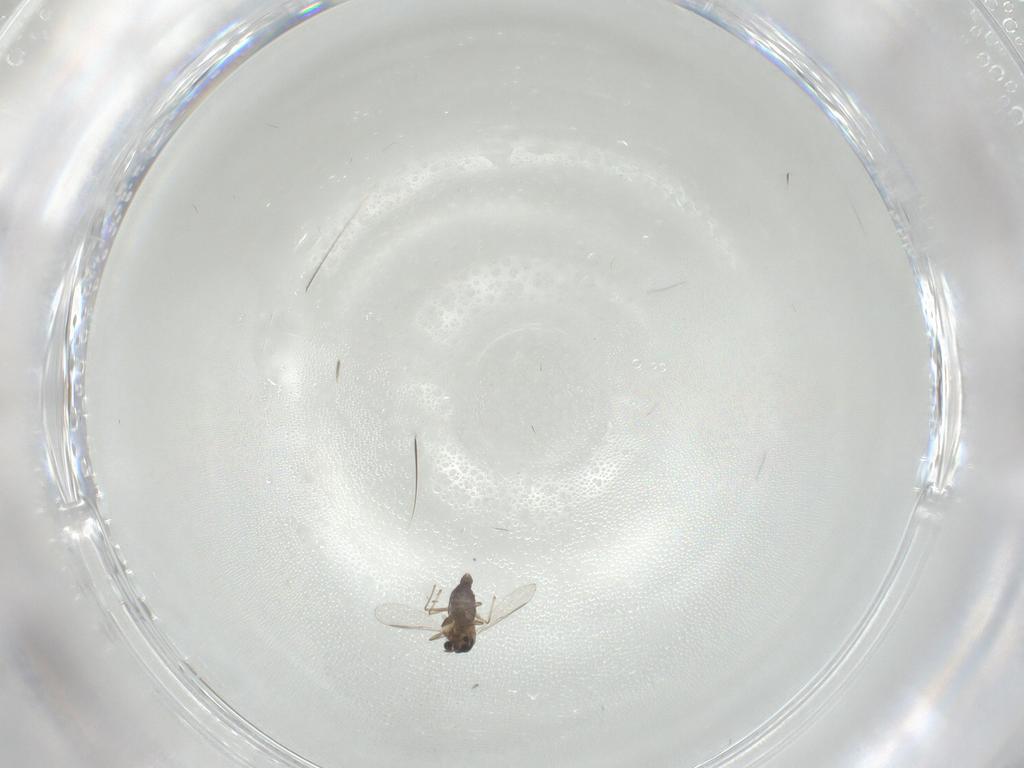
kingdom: Animalia
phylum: Arthropoda
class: Insecta
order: Diptera
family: Chironomidae
